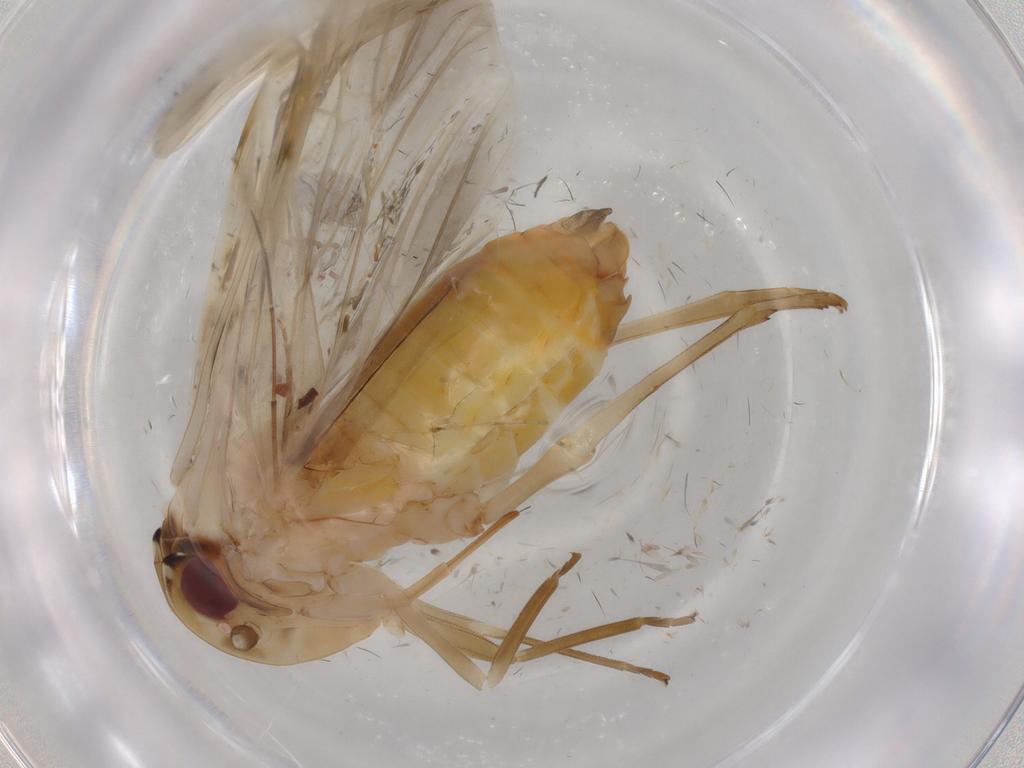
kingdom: Animalia
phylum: Arthropoda
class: Insecta
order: Hemiptera
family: Achilidae
